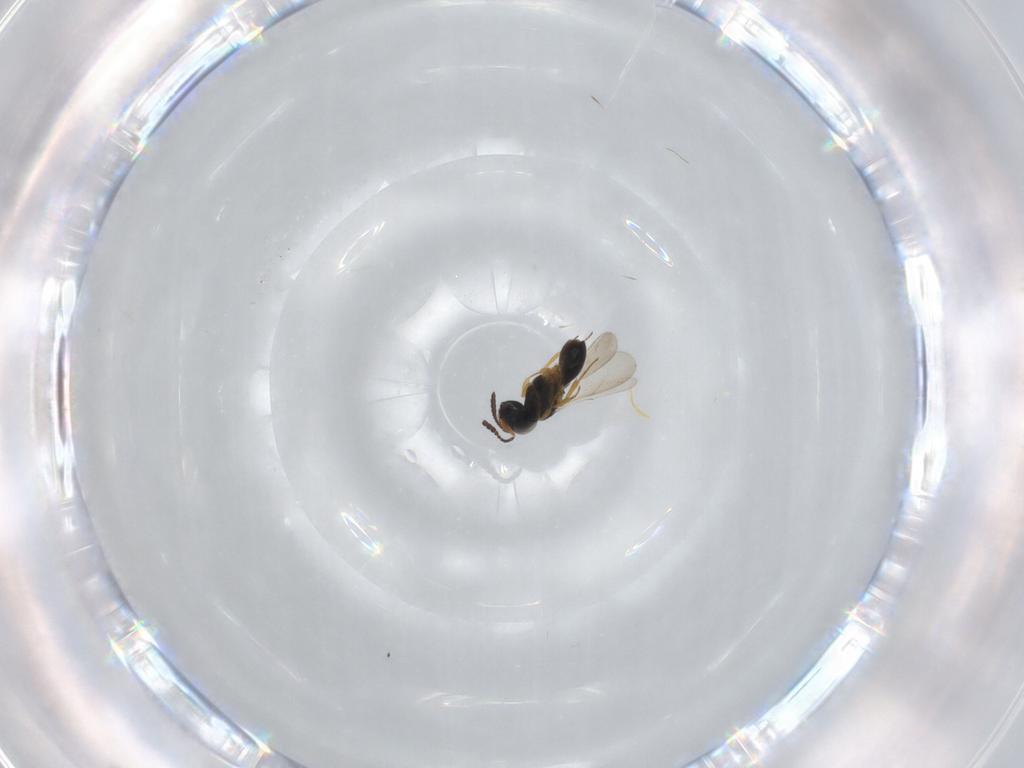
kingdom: Animalia
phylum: Arthropoda
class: Insecta
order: Hymenoptera
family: Scelionidae
